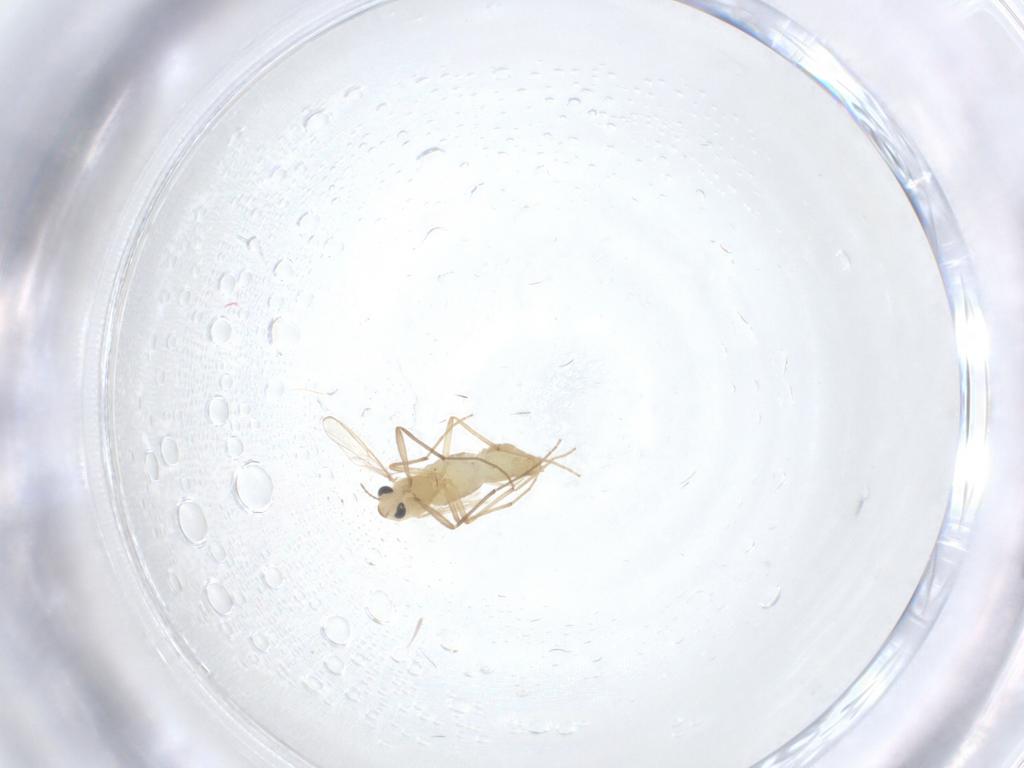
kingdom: Animalia
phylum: Arthropoda
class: Insecta
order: Diptera
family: Chironomidae
